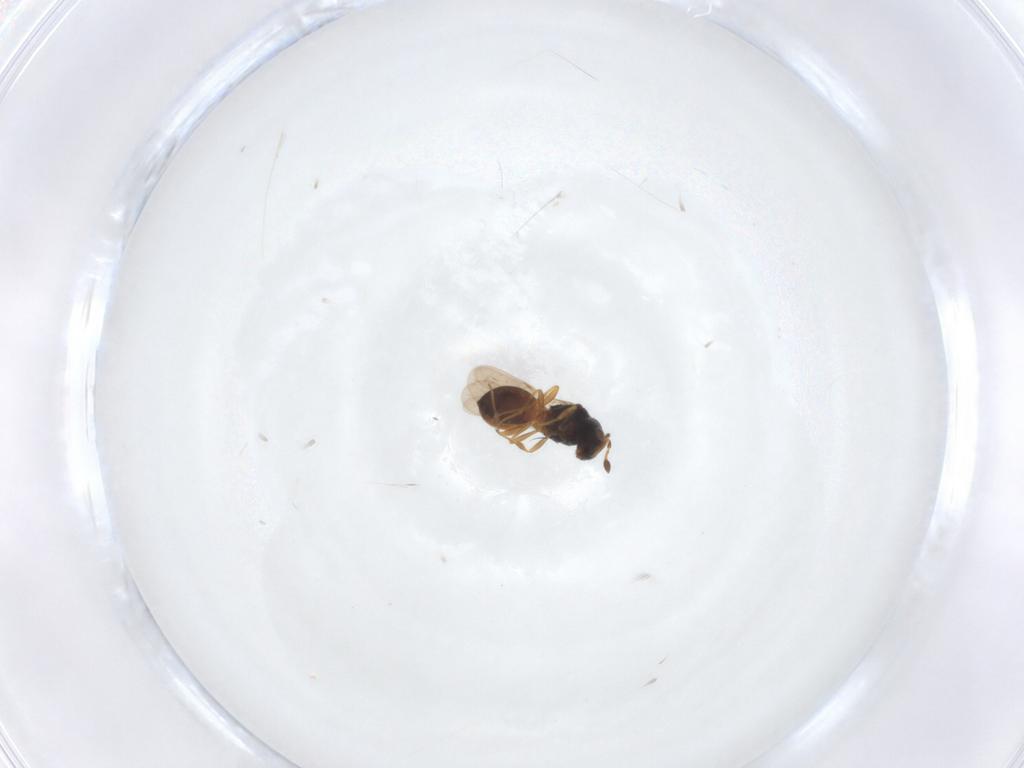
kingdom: Animalia
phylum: Arthropoda
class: Insecta
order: Hymenoptera
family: Scelionidae
